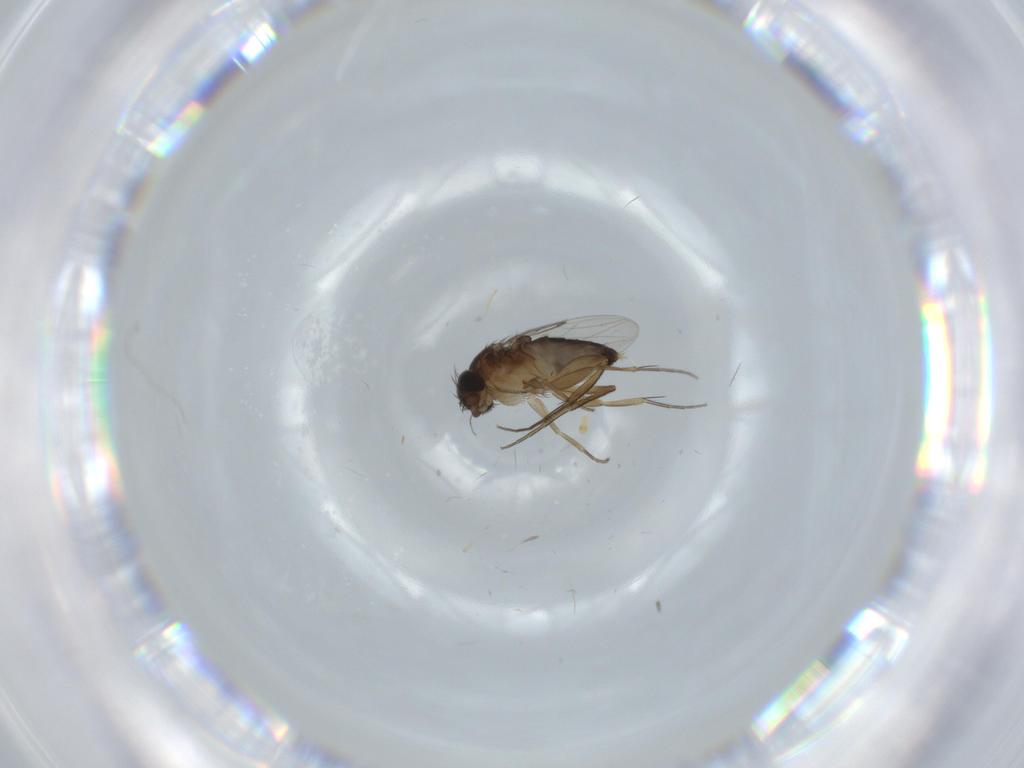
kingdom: Animalia
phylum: Arthropoda
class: Insecta
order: Diptera
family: Phoridae
